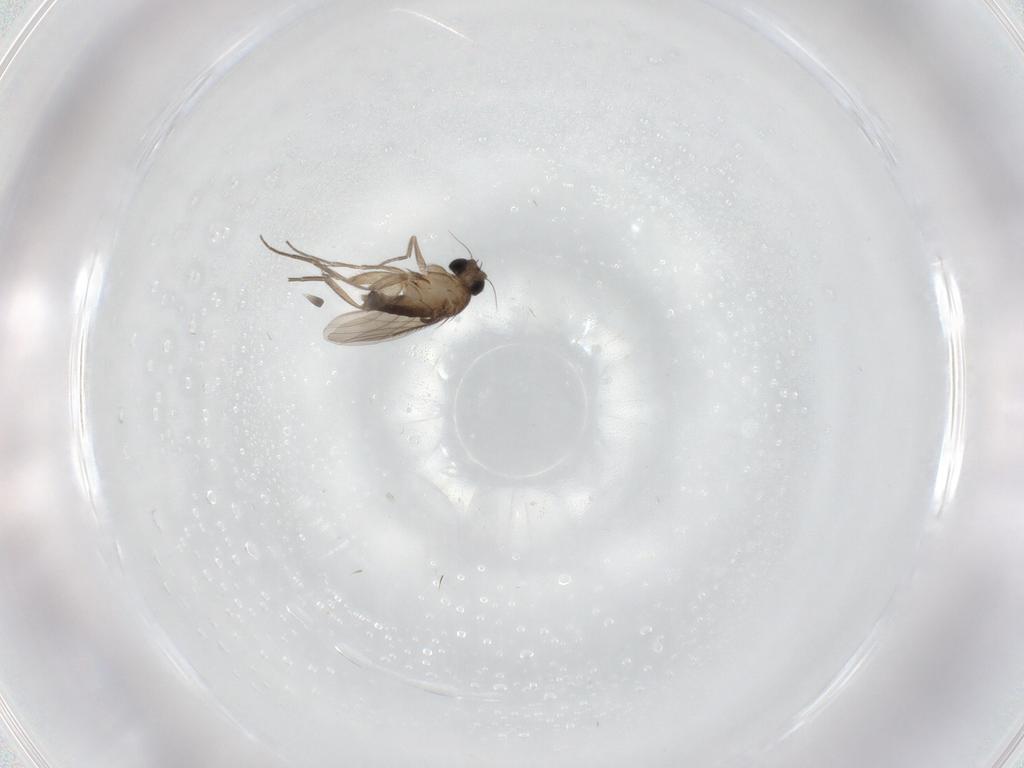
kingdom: Animalia
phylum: Arthropoda
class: Insecta
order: Diptera
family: Phoridae
